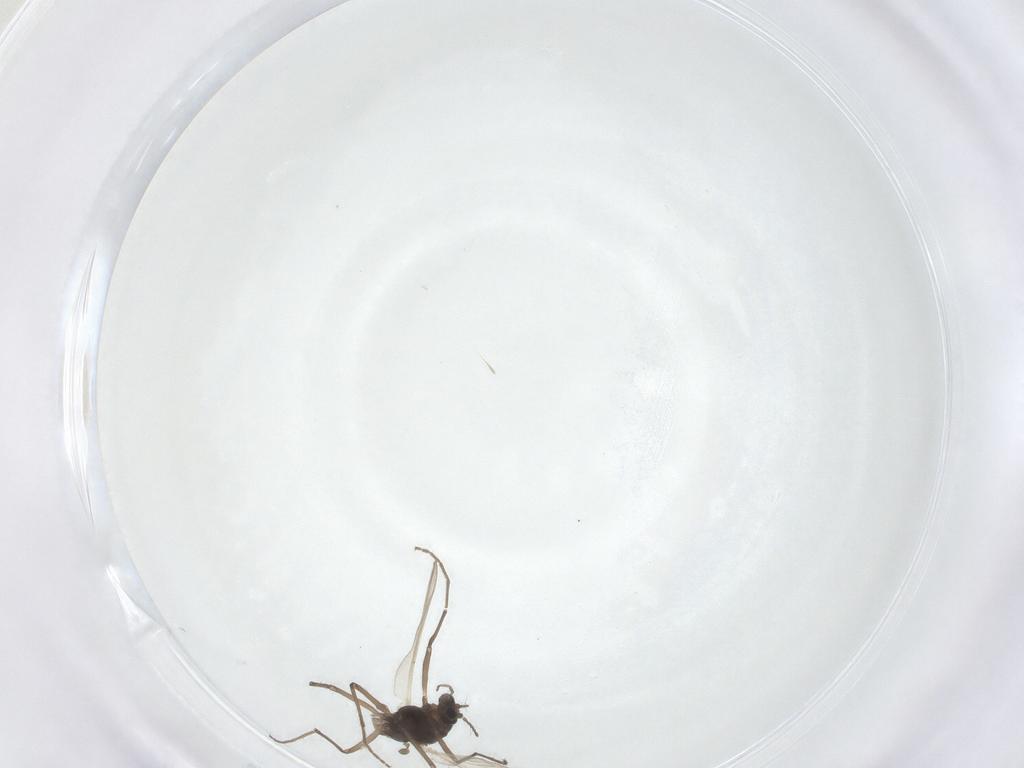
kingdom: Animalia
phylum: Arthropoda
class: Insecta
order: Diptera
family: Chironomidae
